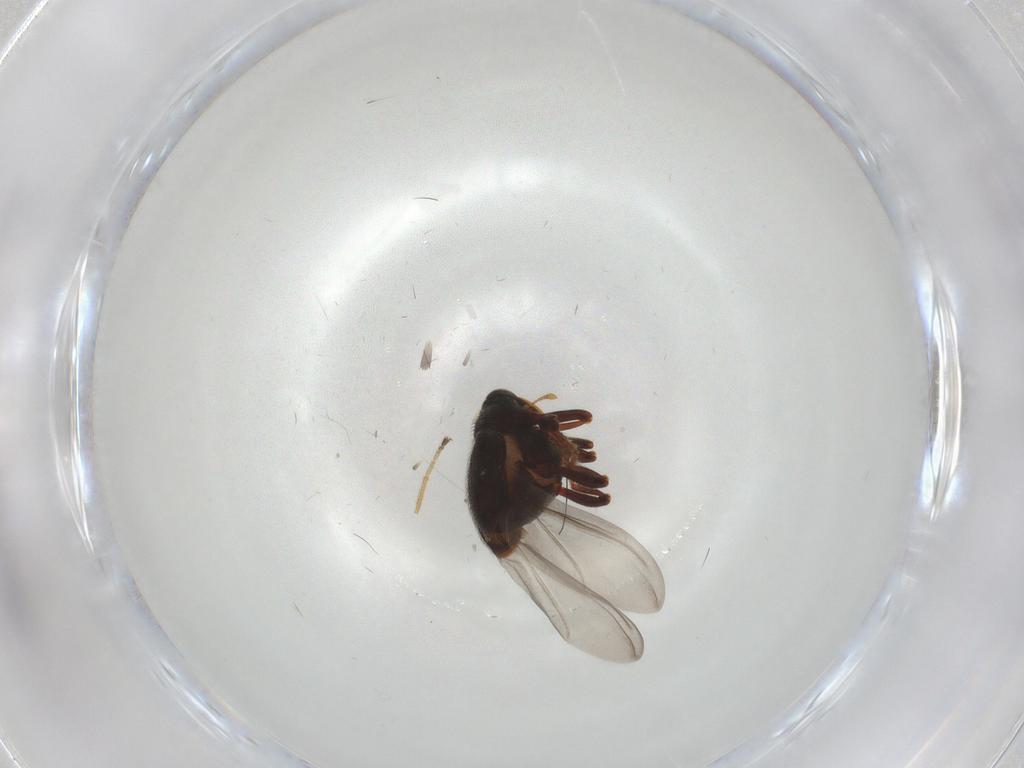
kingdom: Animalia
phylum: Arthropoda
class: Insecta
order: Coleoptera
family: Curculionidae
